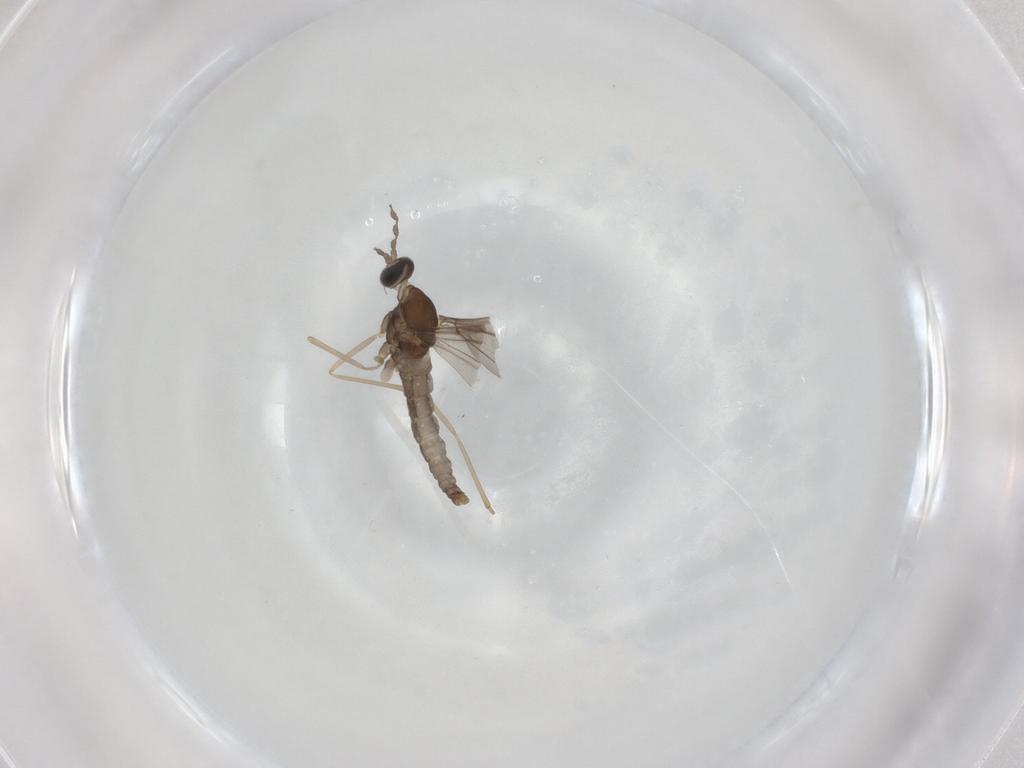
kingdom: Animalia
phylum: Arthropoda
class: Insecta
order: Diptera
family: Cecidomyiidae
